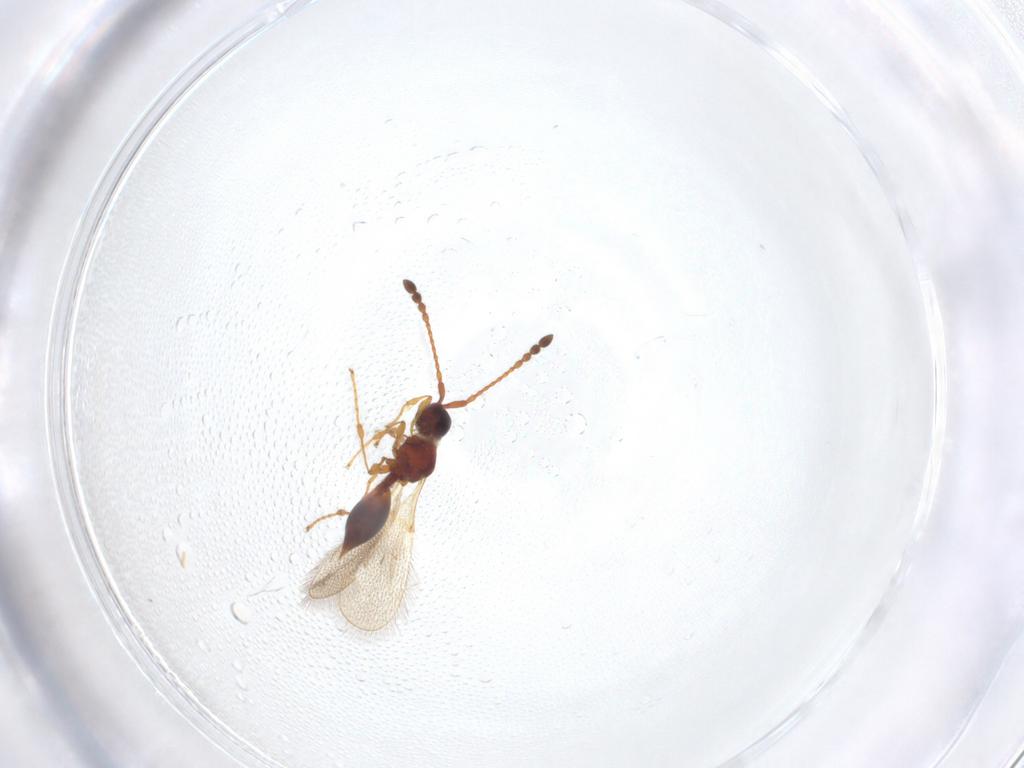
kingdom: Animalia
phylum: Arthropoda
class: Insecta
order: Hymenoptera
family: Diapriidae
